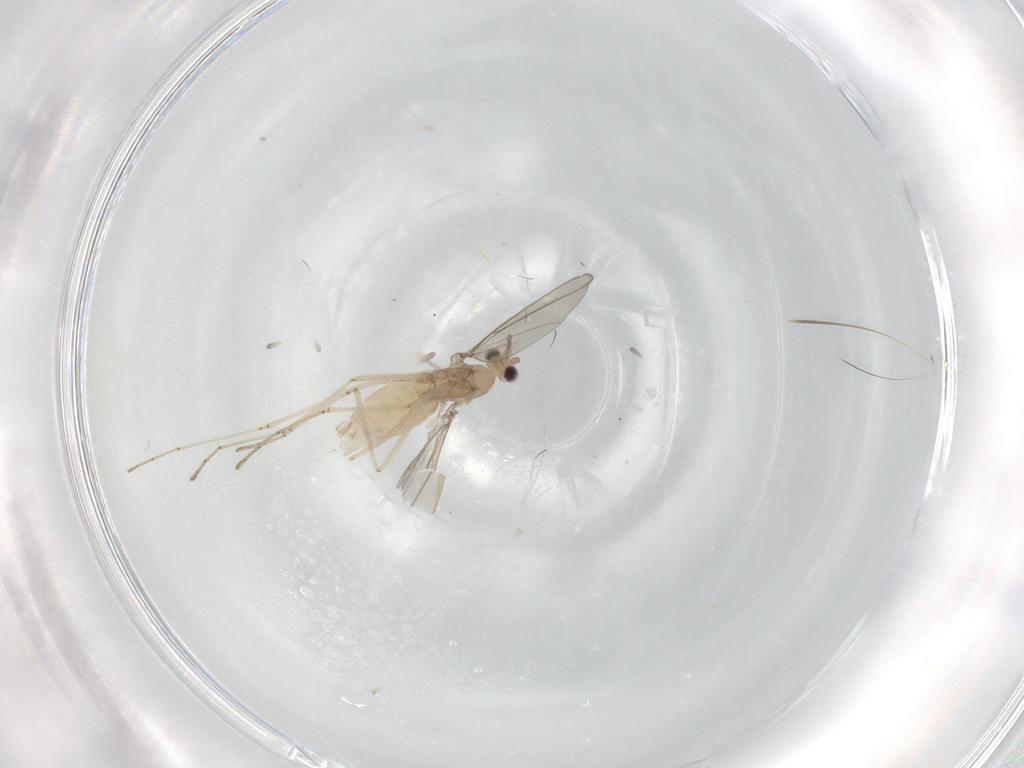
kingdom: Animalia
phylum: Arthropoda
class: Insecta
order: Diptera
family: Cecidomyiidae
